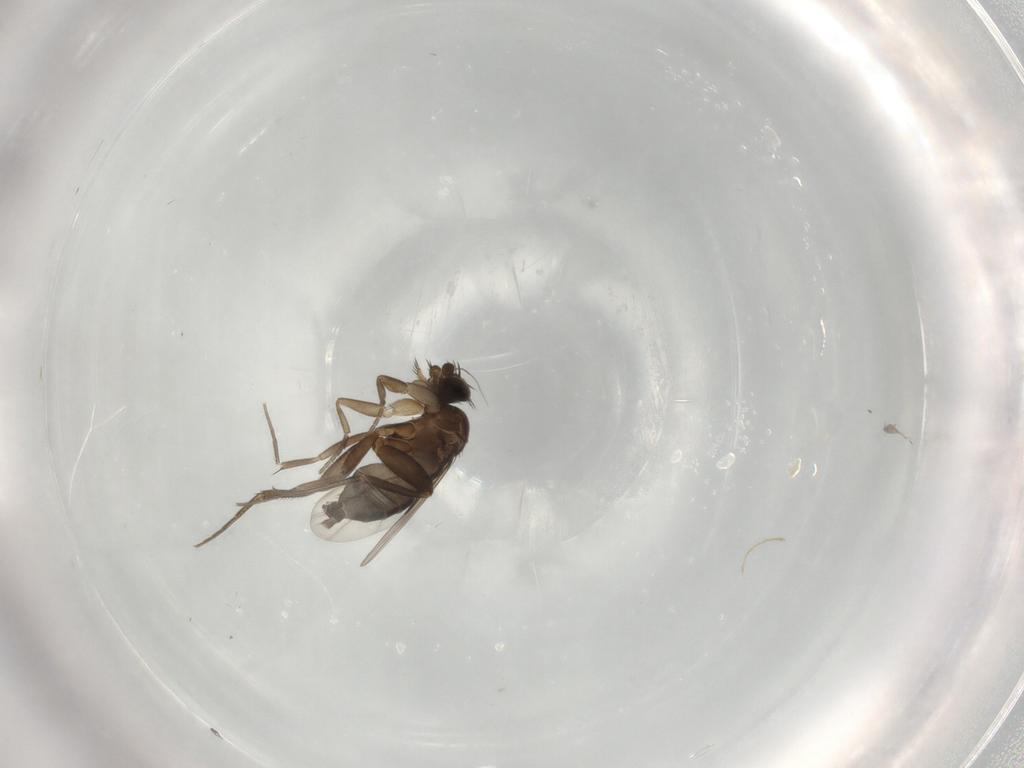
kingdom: Animalia
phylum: Arthropoda
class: Insecta
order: Diptera
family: Phoridae
